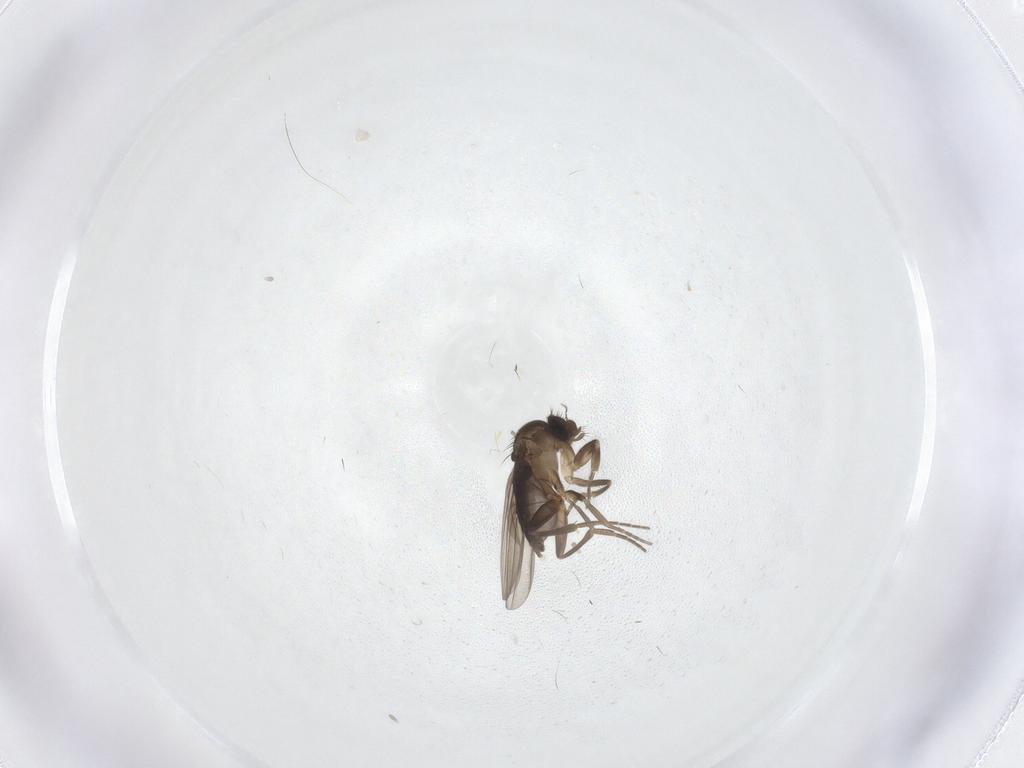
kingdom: Animalia
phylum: Arthropoda
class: Insecta
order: Diptera
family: Phoridae
